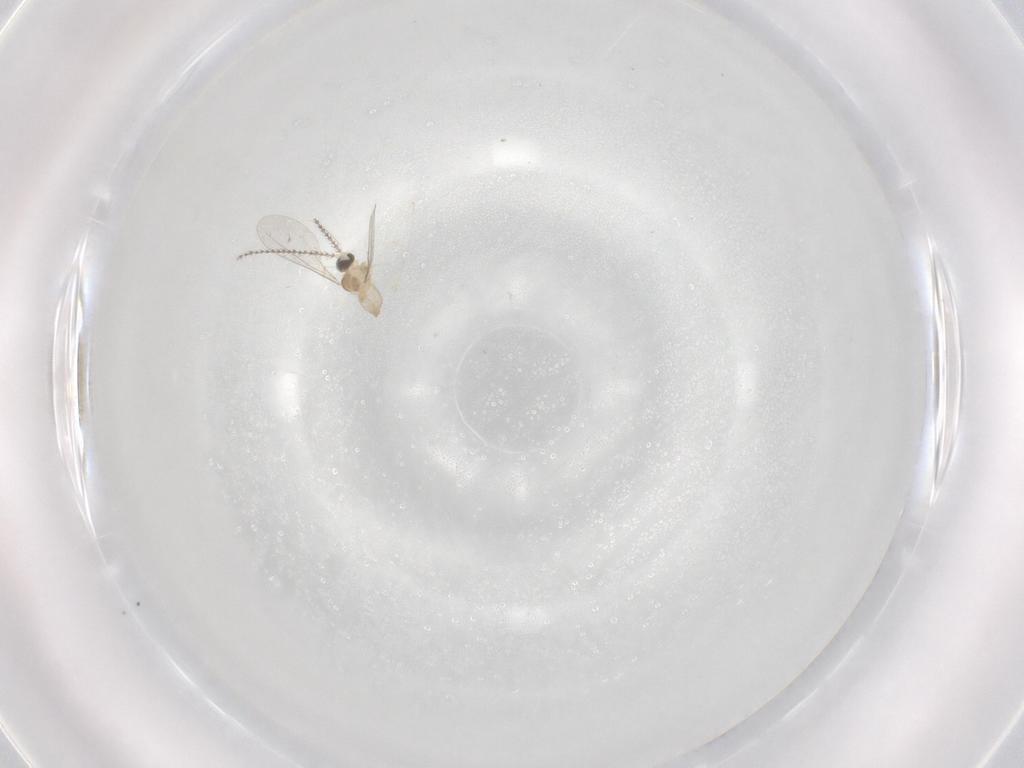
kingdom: Animalia
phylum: Arthropoda
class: Insecta
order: Diptera
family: Cecidomyiidae
